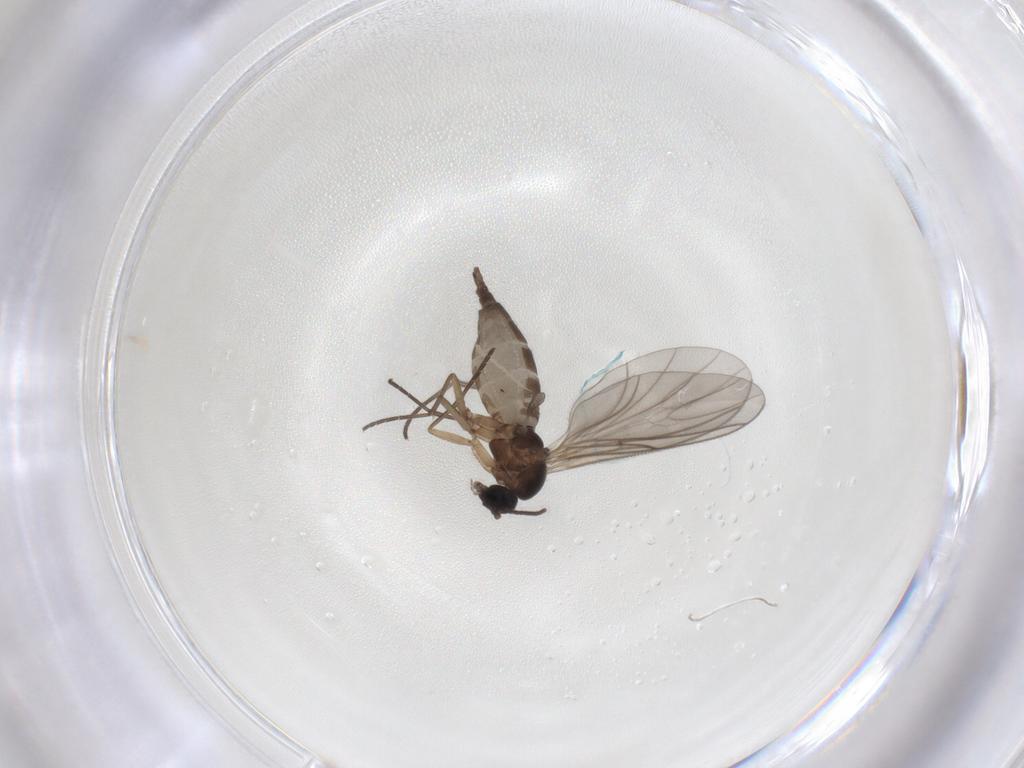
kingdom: Animalia
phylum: Arthropoda
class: Insecta
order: Diptera
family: Sciaridae
